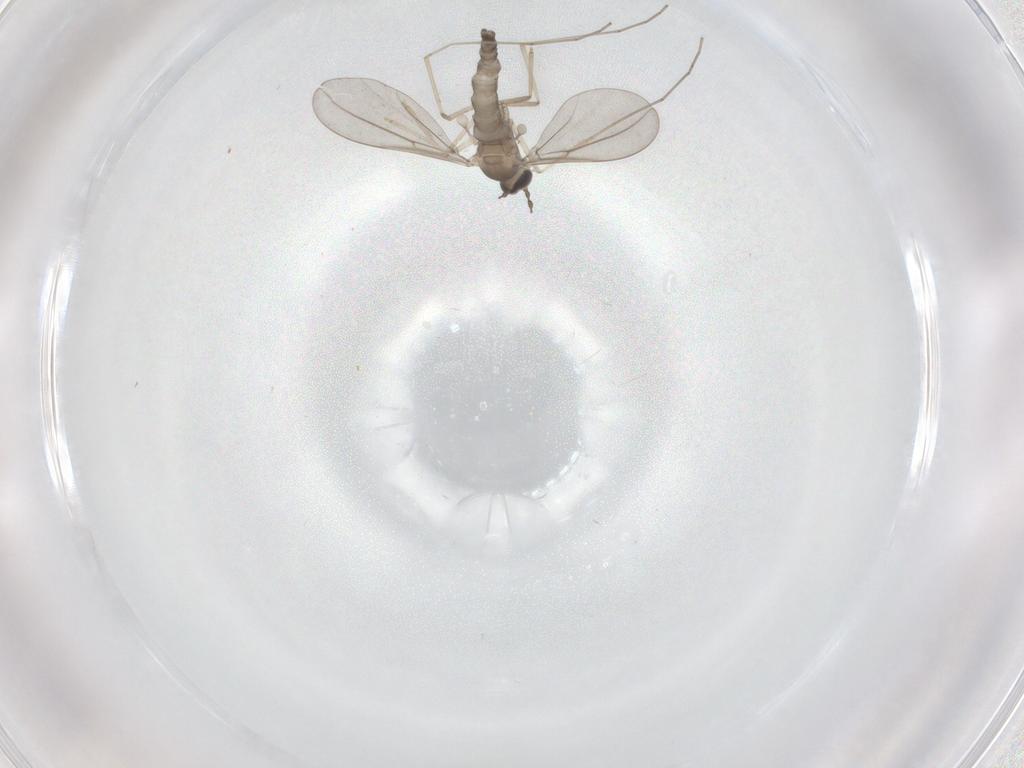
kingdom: Animalia
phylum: Arthropoda
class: Insecta
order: Diptera
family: Cecidomyiidae
